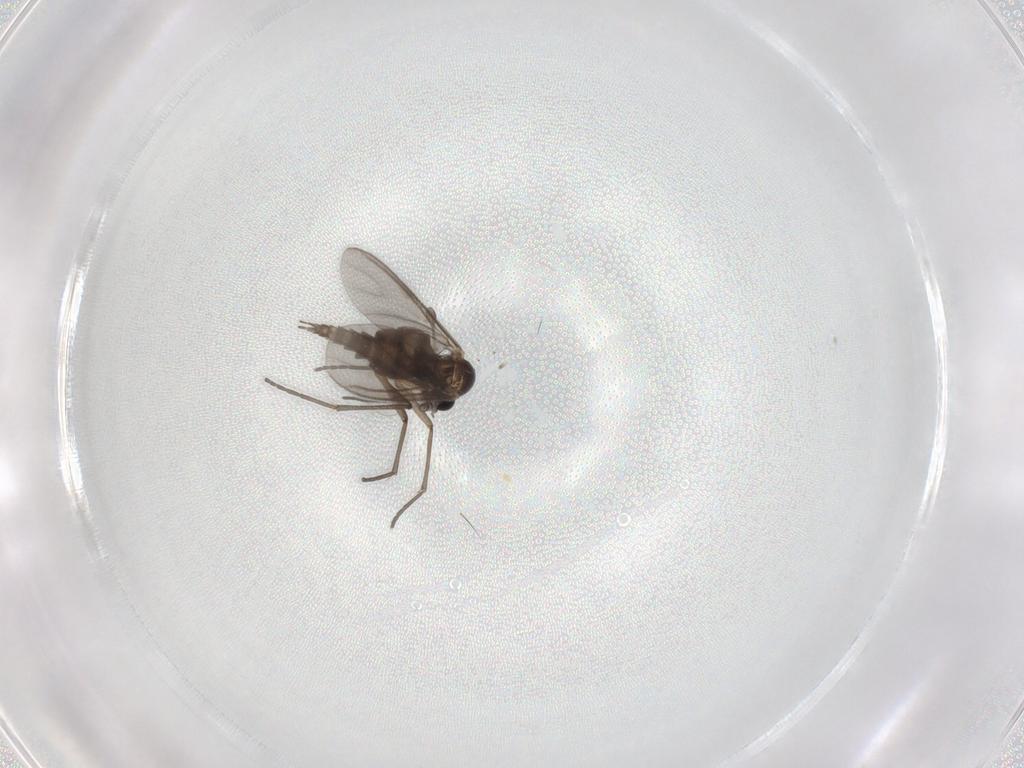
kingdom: Animalia
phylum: Arthropoda
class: Insecta
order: Diptera
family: Sciaridae
